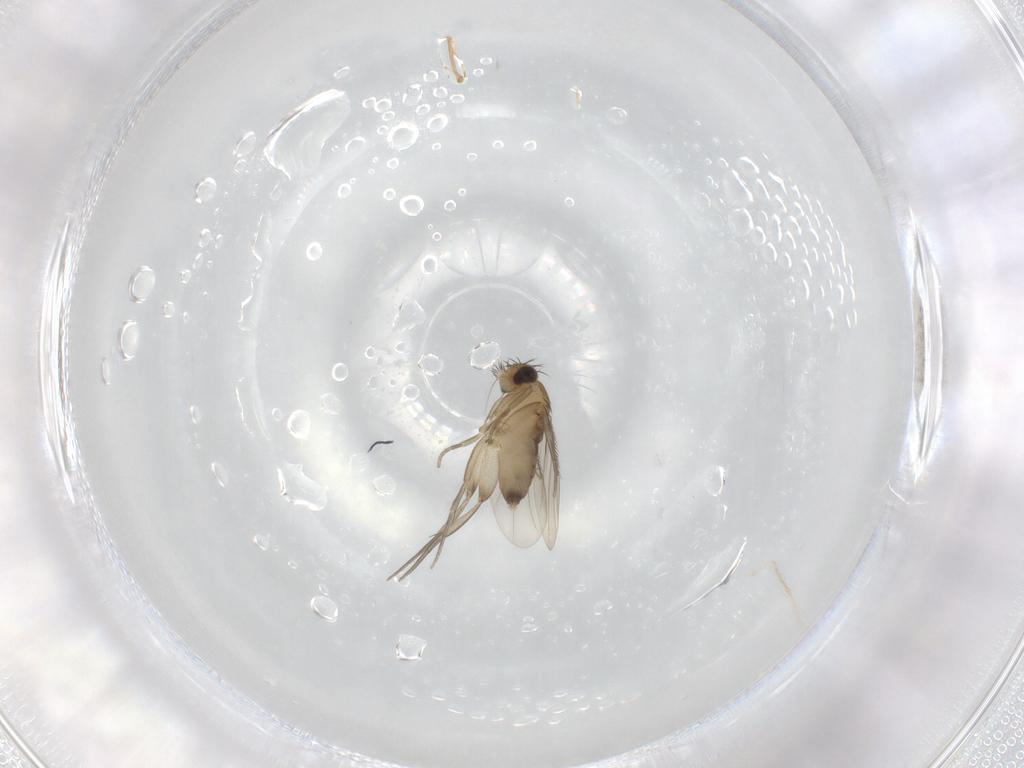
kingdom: Animalia
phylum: Arthropoda
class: Insecta
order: Diptera
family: Phoridae
